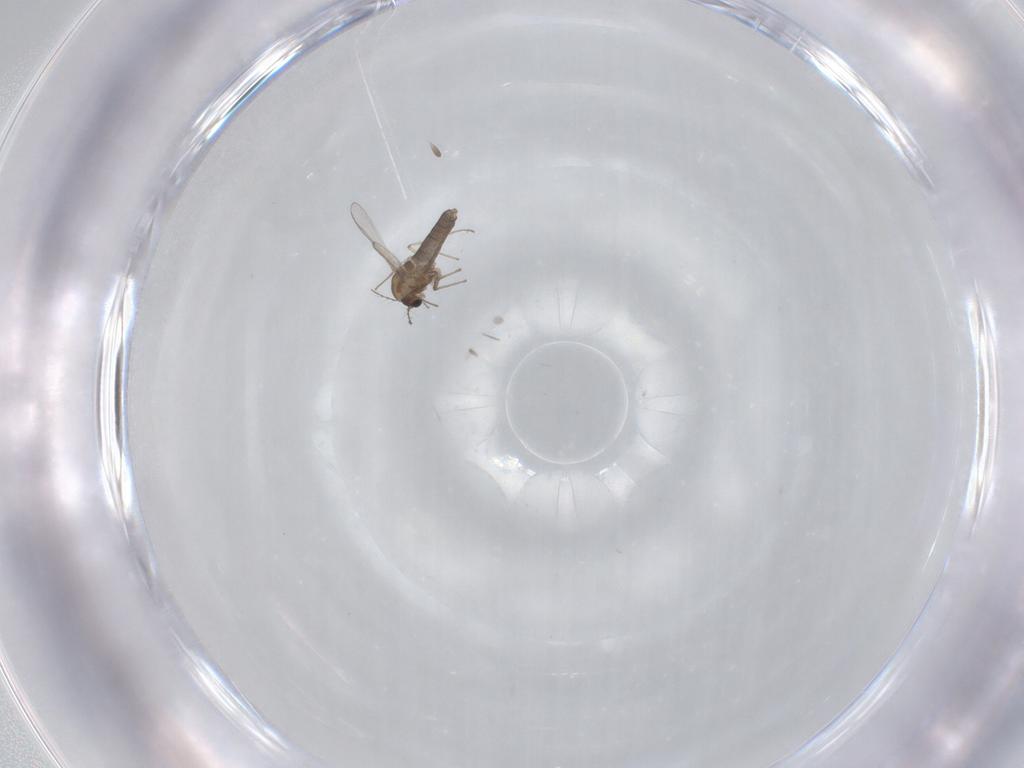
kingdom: Animalia
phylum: Arthropoda
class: Insecta
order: Diptera
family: Chironomidae
